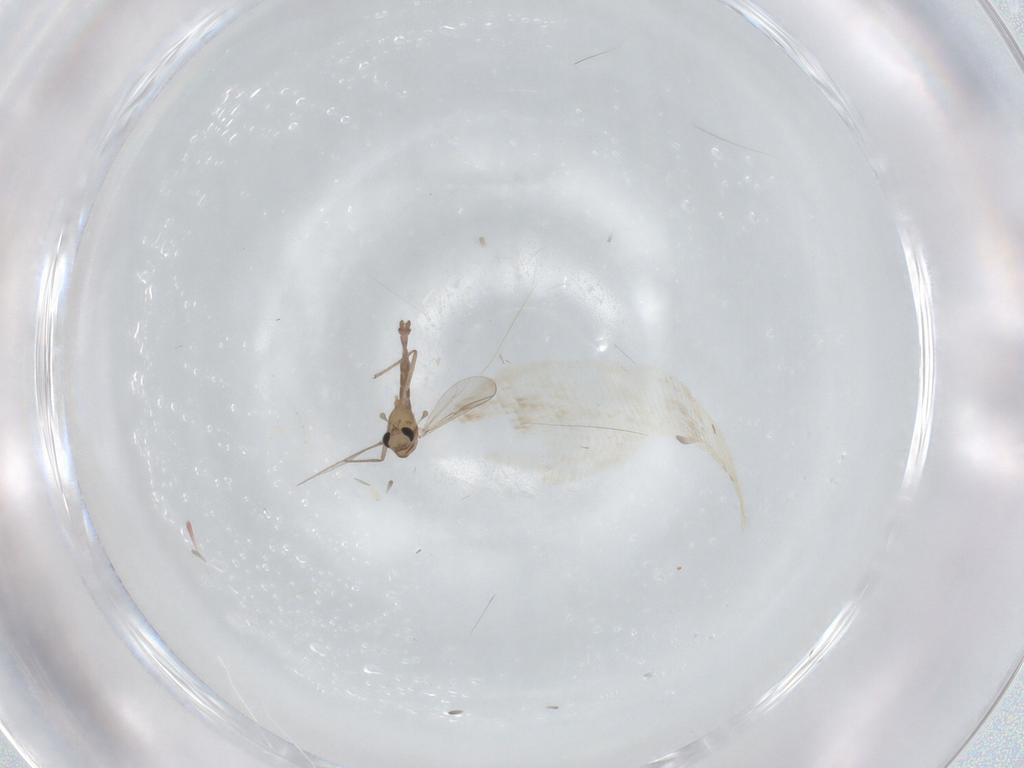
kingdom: Animalia
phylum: Arthropoda
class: Insecta
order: Diptera
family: Chironomidae
